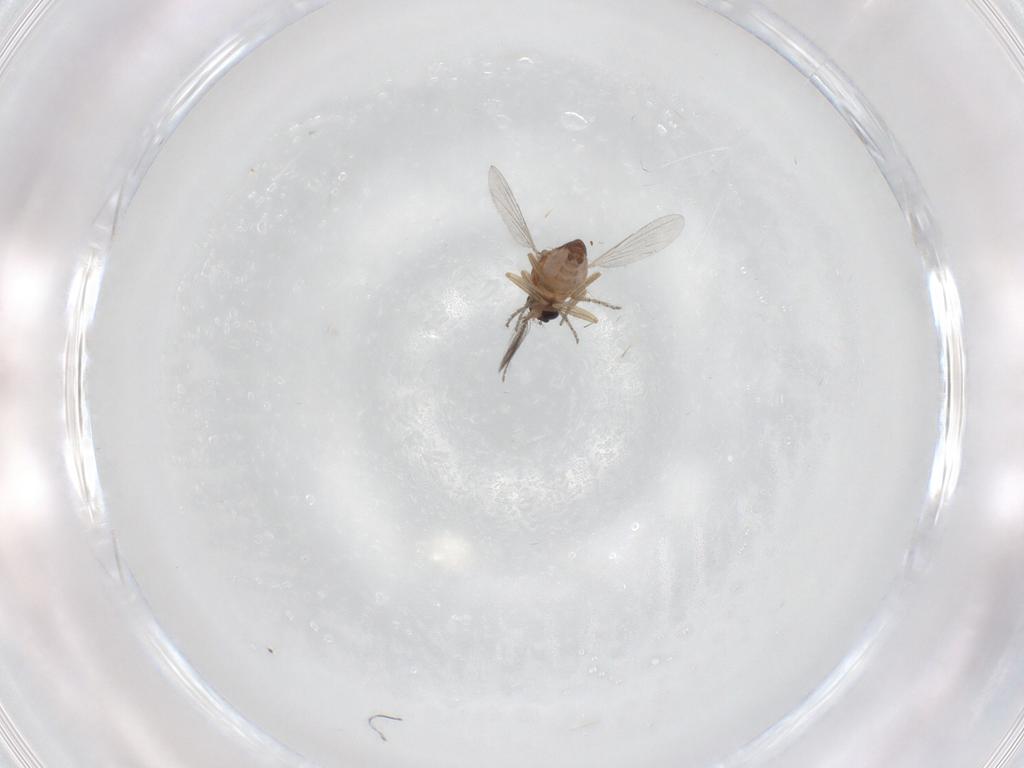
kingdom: Animalia
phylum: Arthropoda
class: Insecta
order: Diptera
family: Ceratopogonidae
